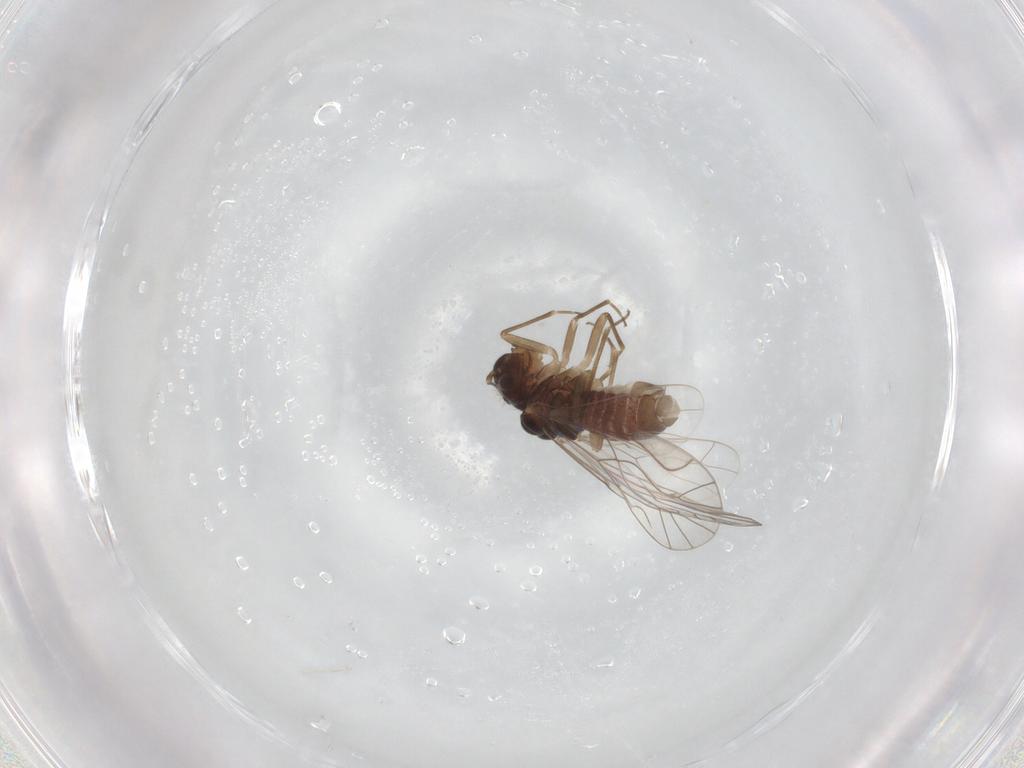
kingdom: Animalia
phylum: Arthropoda
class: Insecta
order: Psocodea
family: Lachesillidae
